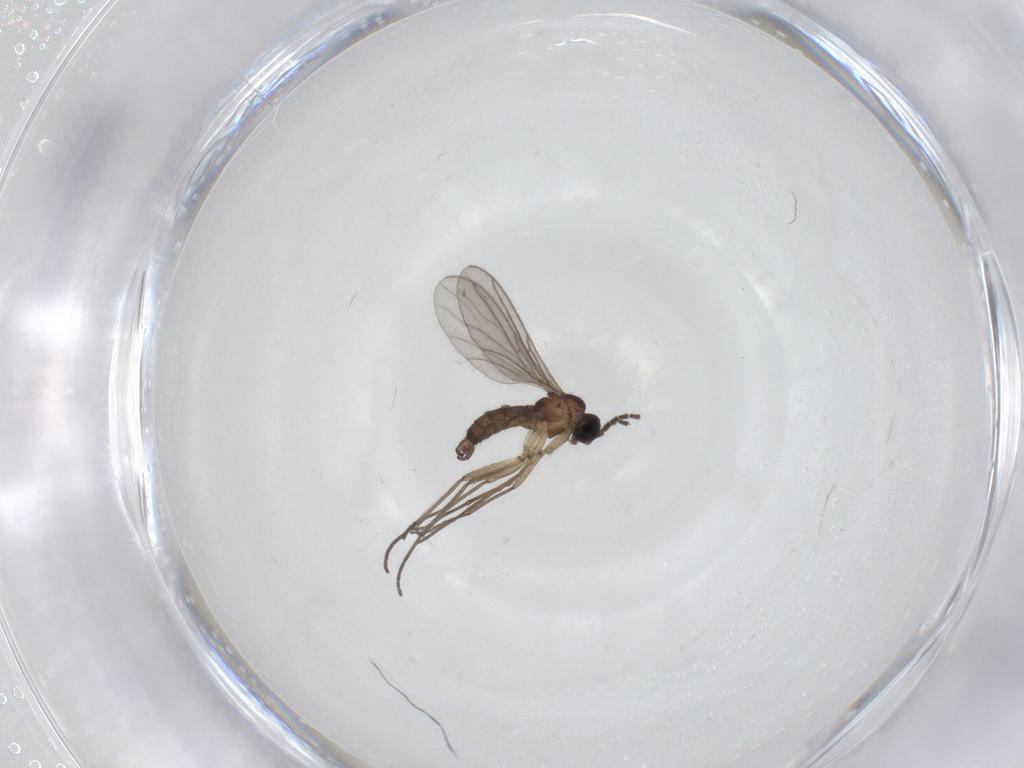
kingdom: Animalia
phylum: Arthropoda
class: Insecta
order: Diptera
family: Sciaridae
